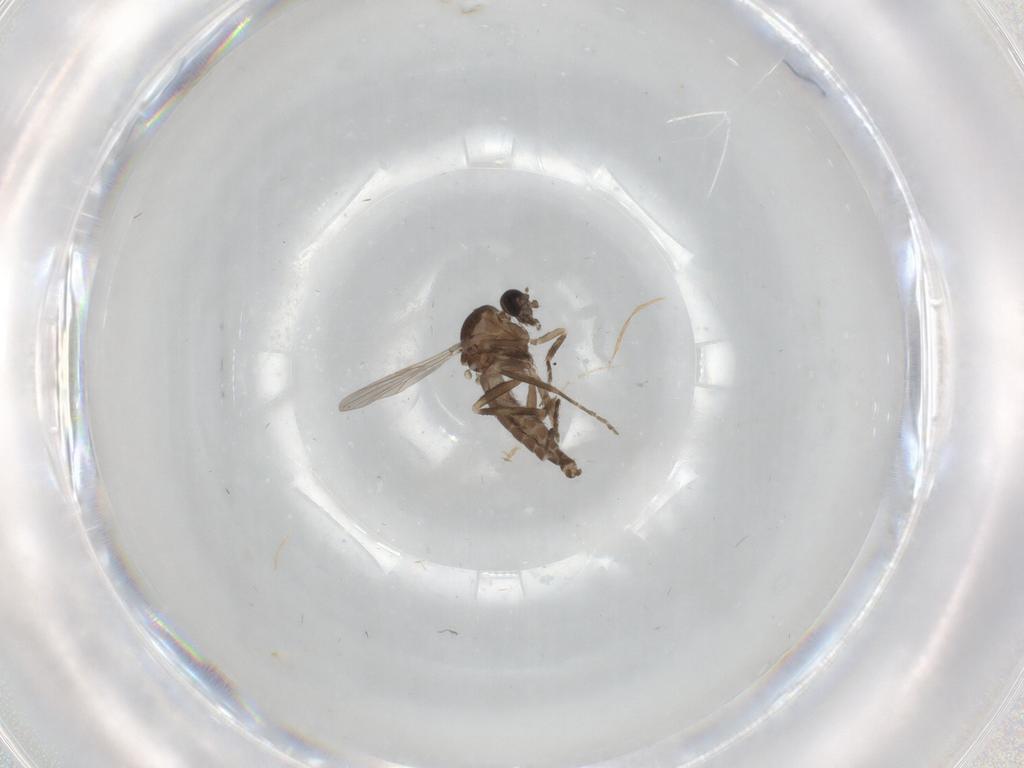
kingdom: Animalia
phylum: Arthropoda
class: Insecta
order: Diptera
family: Ceratopogonidae
